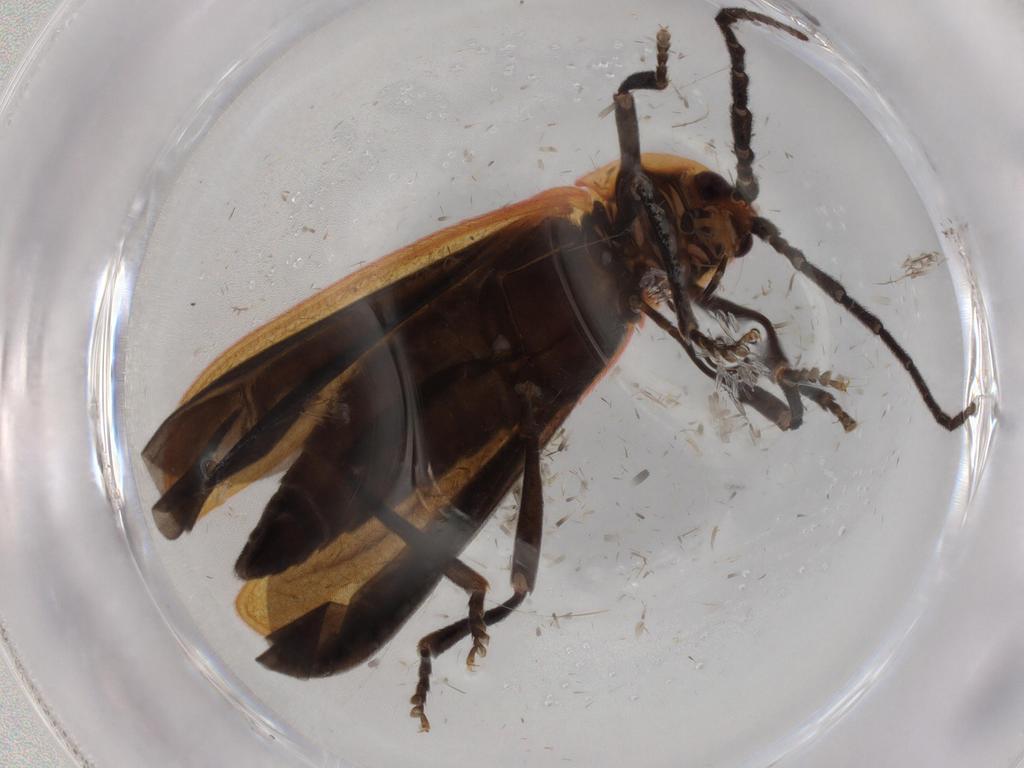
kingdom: Animalia
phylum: Arthropoda
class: Insecta
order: Coleoptera
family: Lycidae
